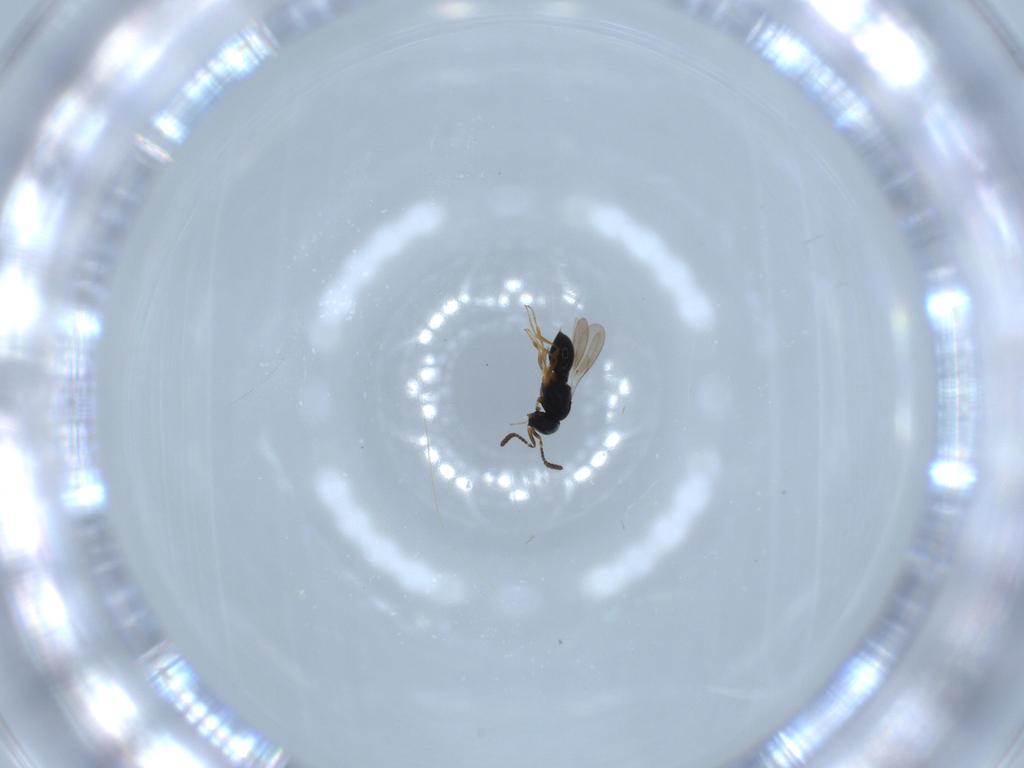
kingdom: Animalia
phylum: Arthropoda
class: Insecta
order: Hymenoptera
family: Scelionidae
